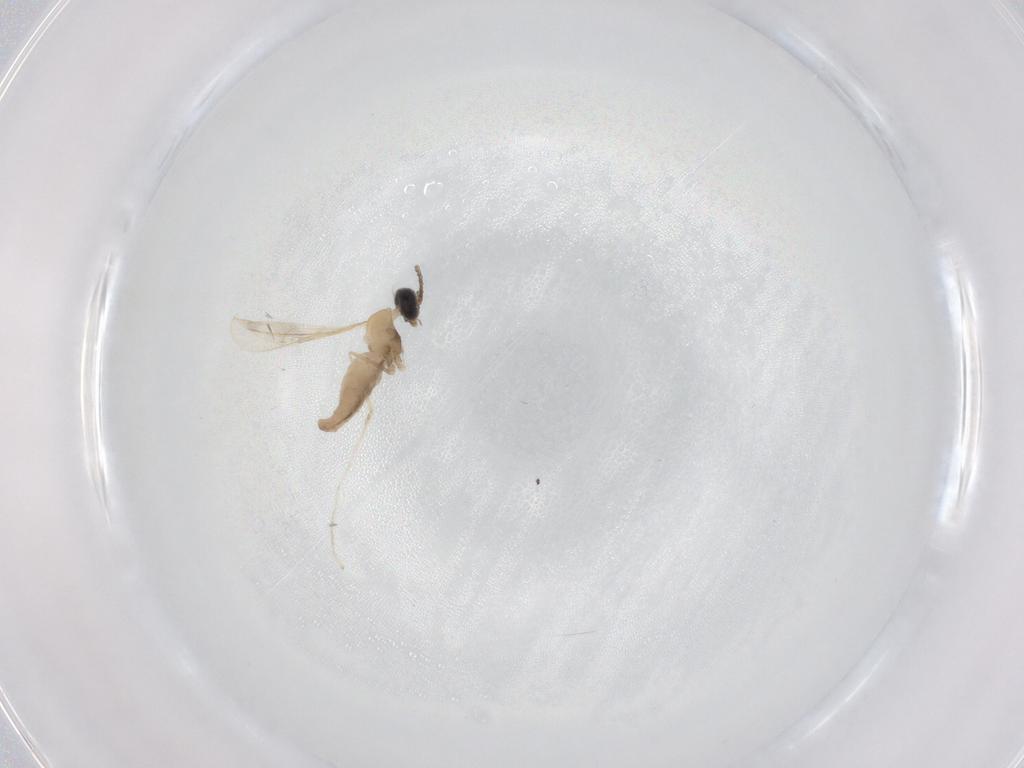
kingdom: Animalia
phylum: Arthropoda
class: Insecta
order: Diptera
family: Cecidomyiidae
